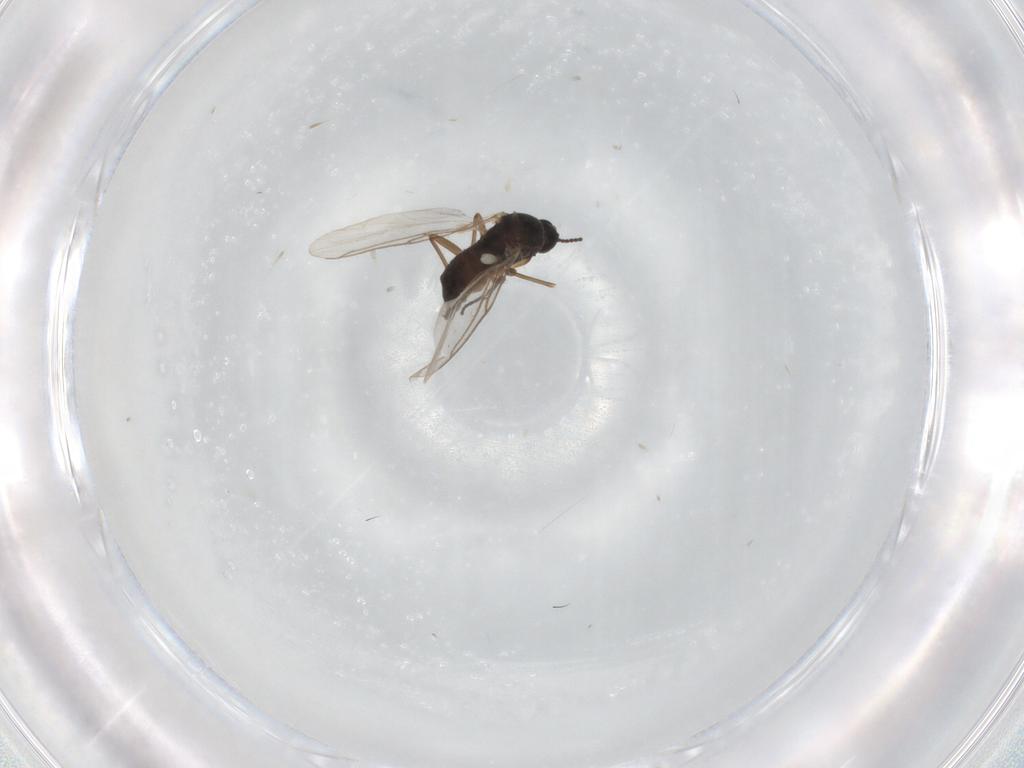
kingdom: Animalia
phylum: Arthropoda
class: Insecta
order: Diptera
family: Sciaridae
